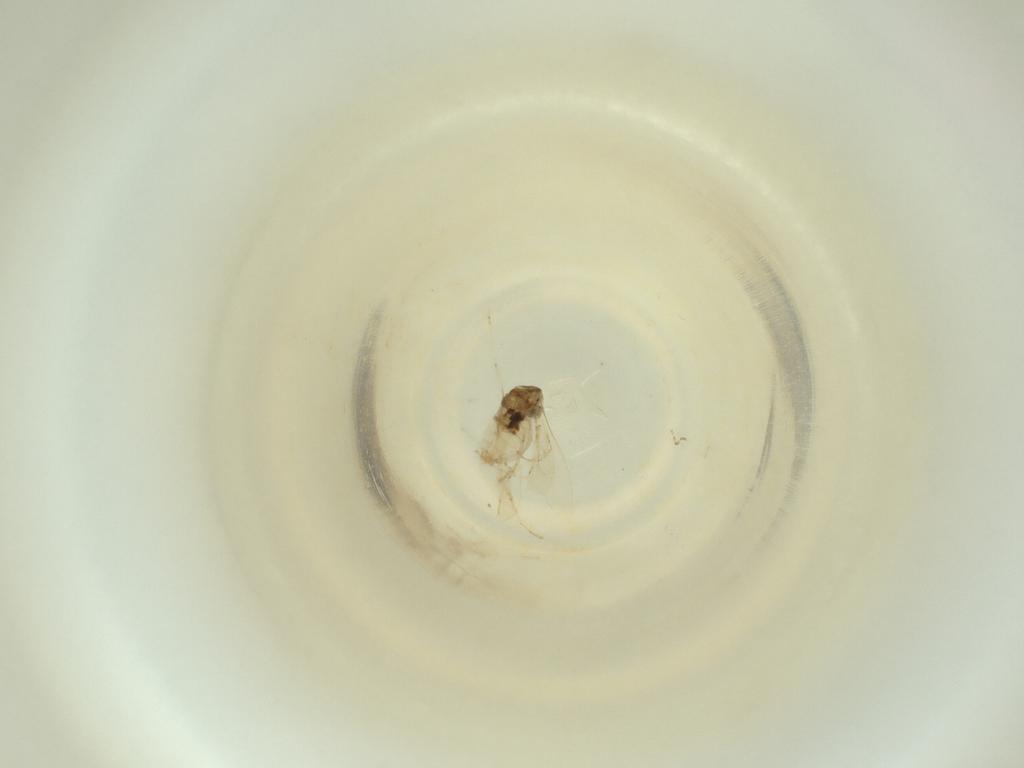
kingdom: Animalia
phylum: Arthropoda
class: Insecta
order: Diptera
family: Cecidomyiidae
